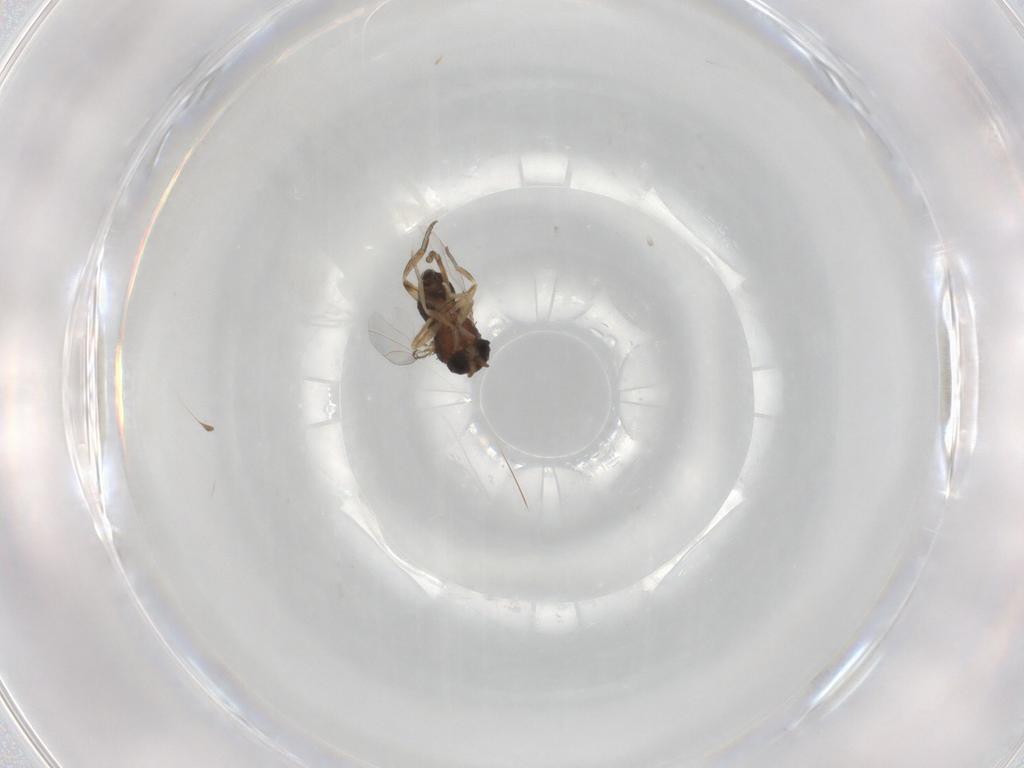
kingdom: Animalia
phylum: Arthropoda
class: Insecta
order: Diptera
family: Phoridae
